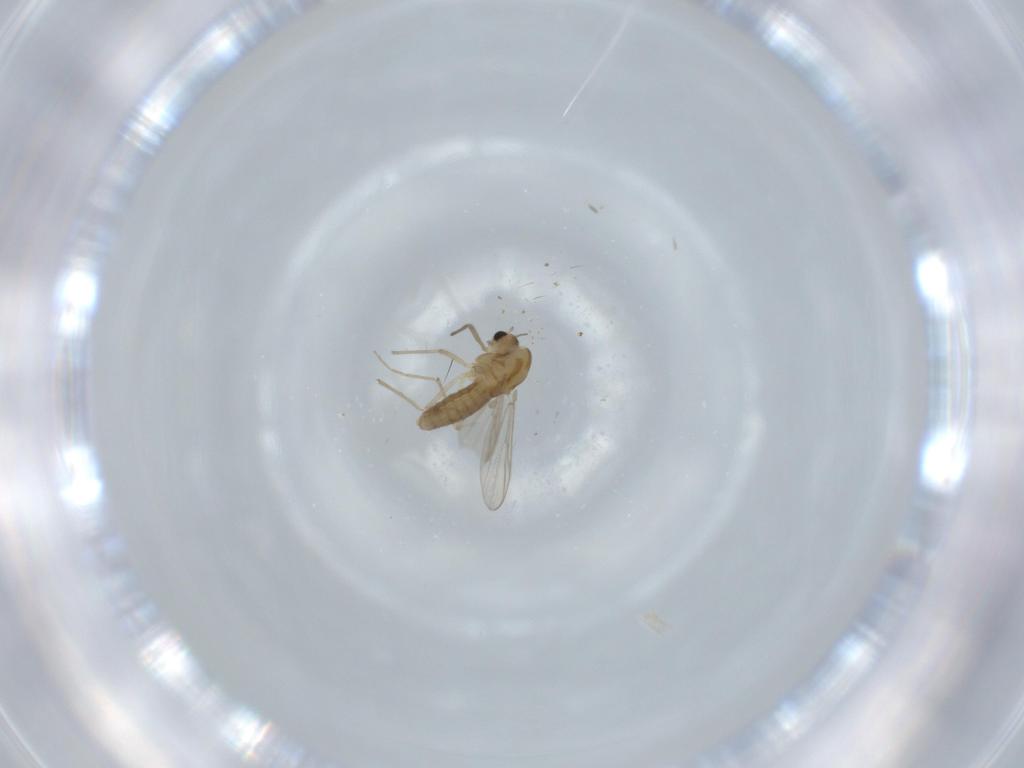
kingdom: Animalia
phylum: Arthropoda
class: Insecta
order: Diptera
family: Chironomidae
